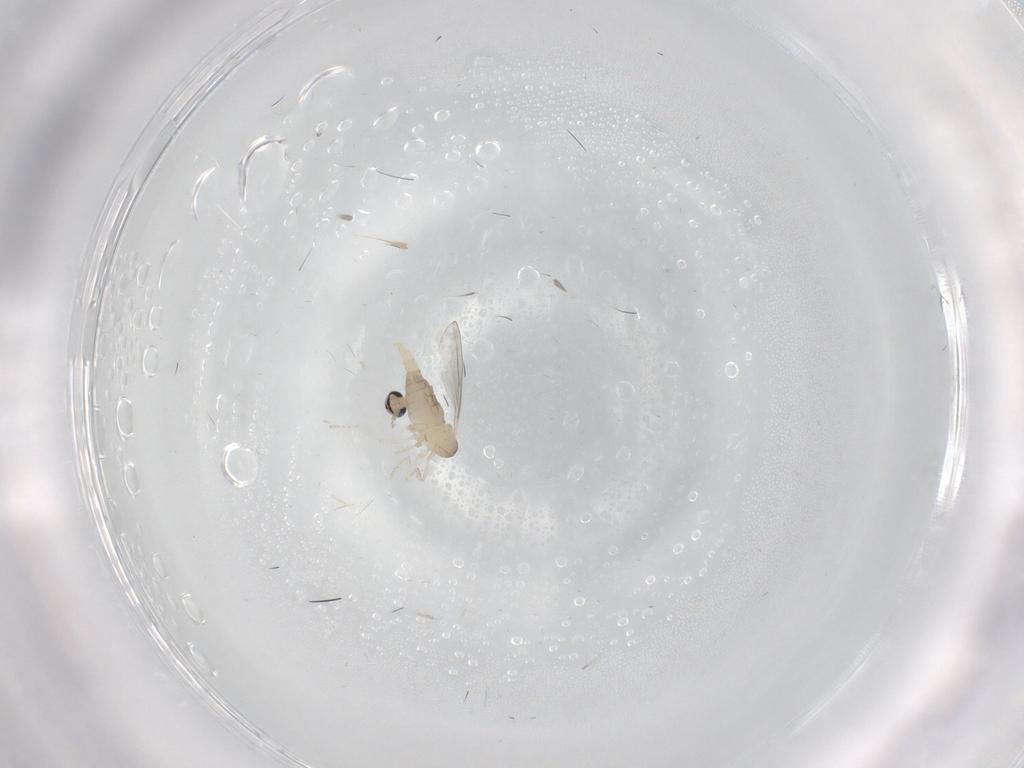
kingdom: Animalia
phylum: Arthropoda
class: Insecta
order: Diptera
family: Cecidomyiidae
